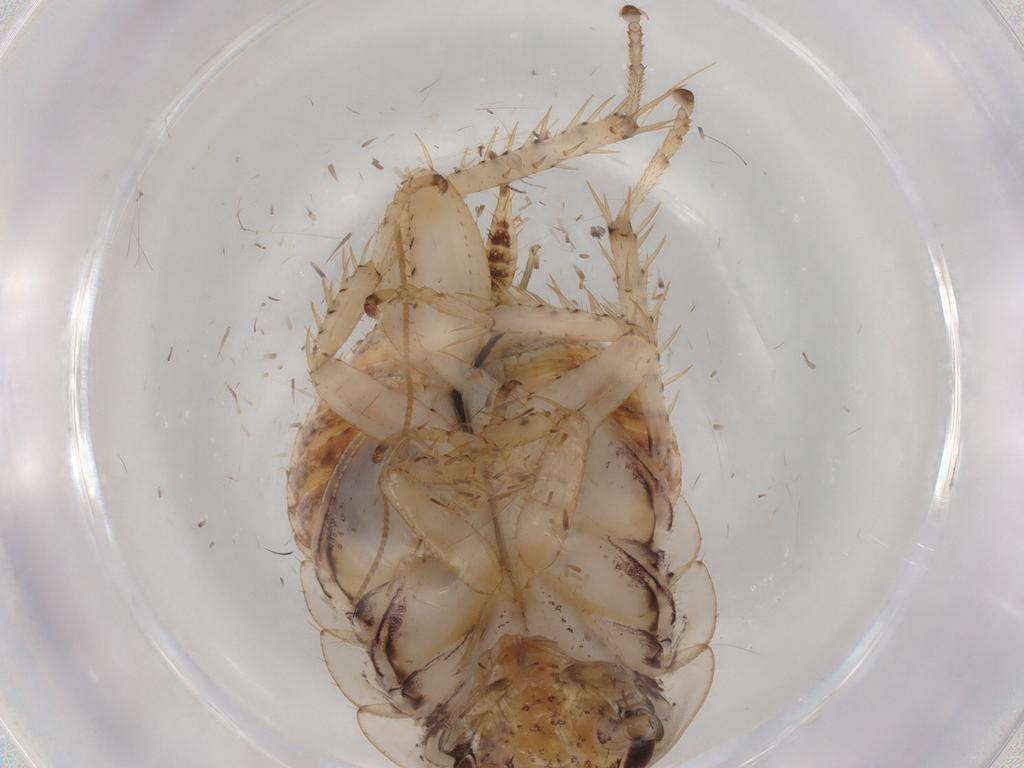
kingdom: Animalia
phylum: Arthropoda
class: Insecta
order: Blattodea
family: Blaberidae
